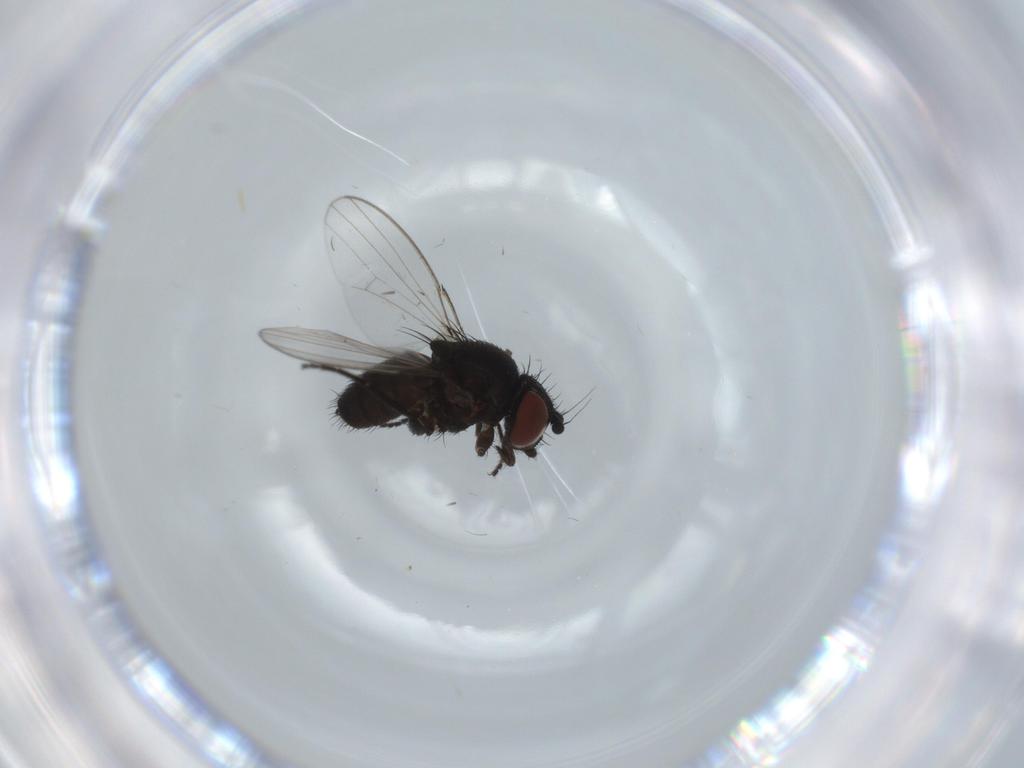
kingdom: Animalia
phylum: Arthropoda
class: Insecta
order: Diptera
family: Milichiidae
